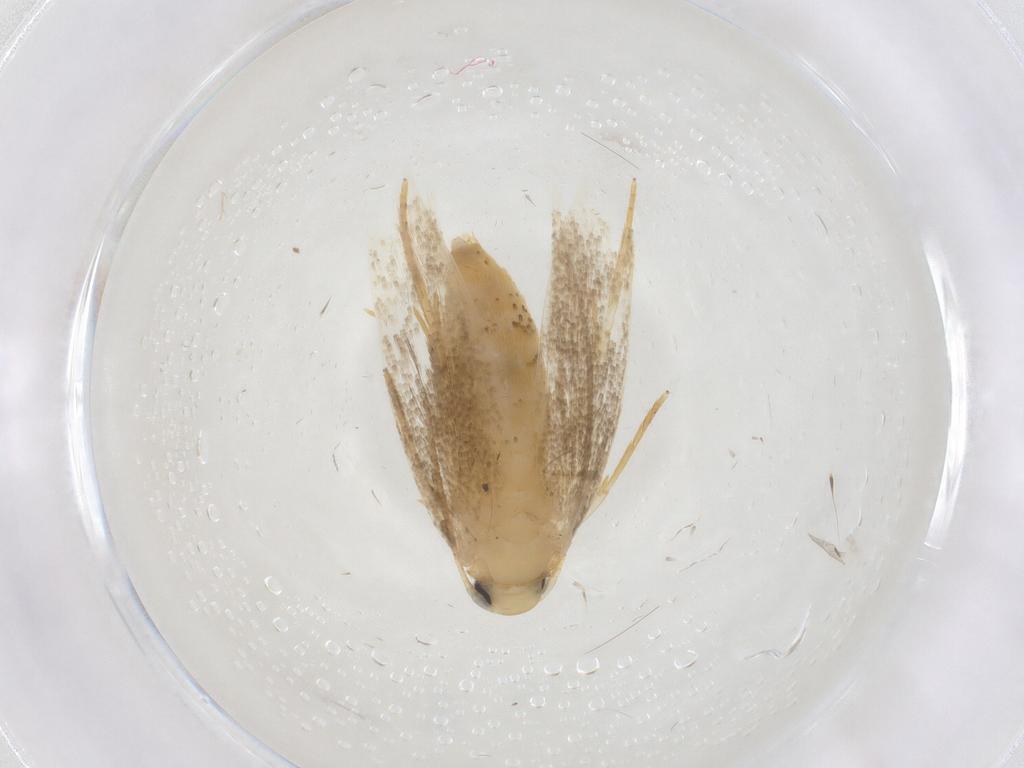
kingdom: Animalia
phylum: Arthropoda
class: Insecta
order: Lepidoptera
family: Erebidae
